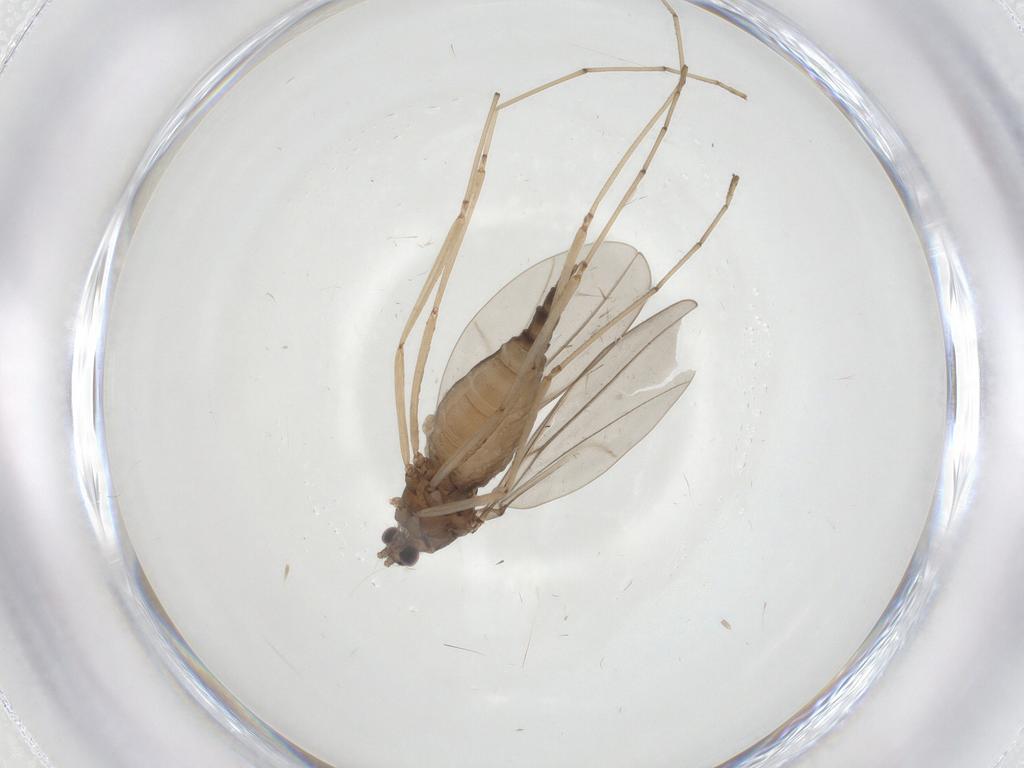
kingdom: Animalia
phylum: Arthropoda
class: Insecta
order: Diptera
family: Cecidomyiidae
